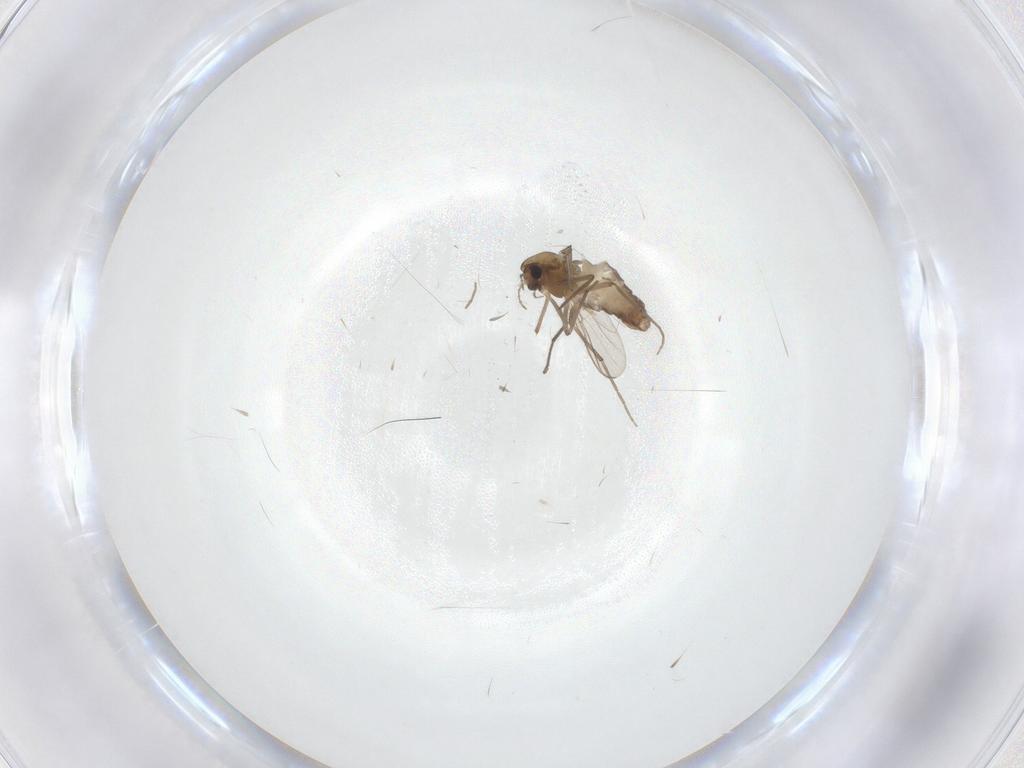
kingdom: Animalia
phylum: Arthropoda
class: Insecta
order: Diptera
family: Chironomidae
